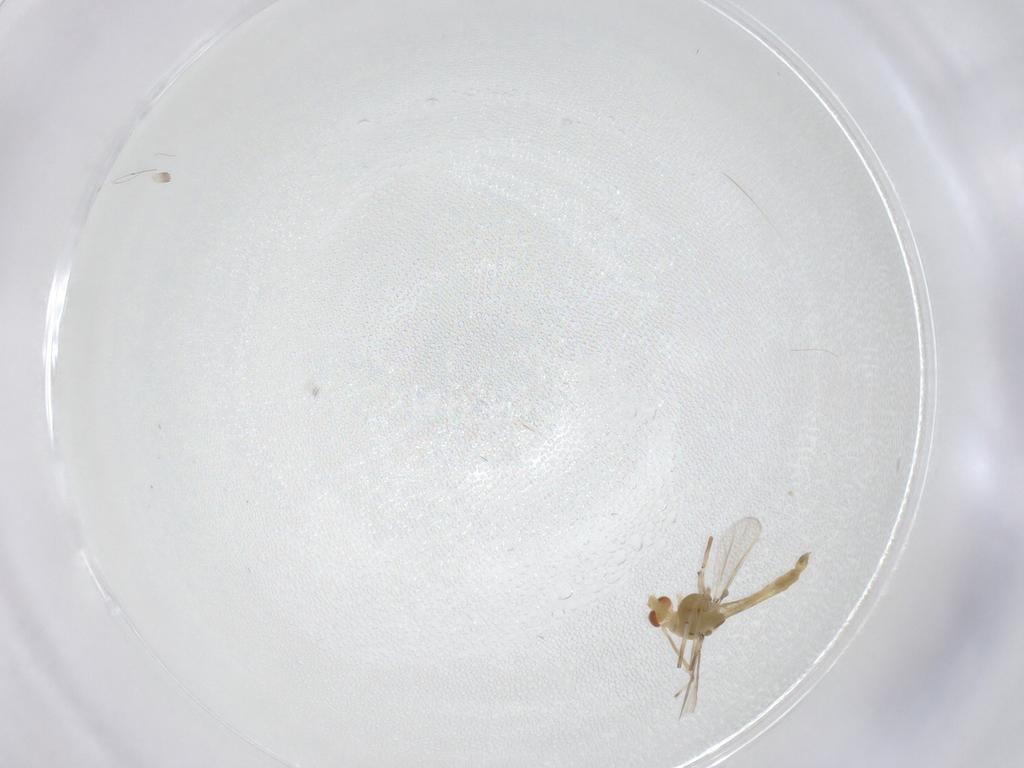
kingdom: Animalia
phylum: Arthropoda
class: Insecta
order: Diptera
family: Chironomidae
